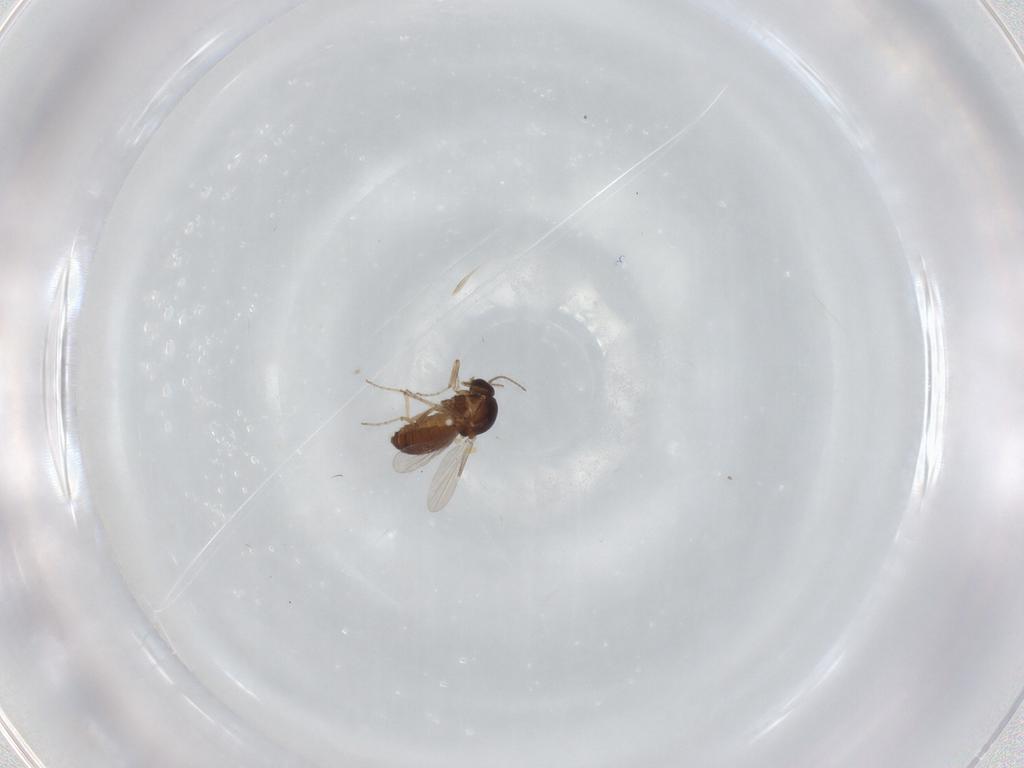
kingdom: Animalia
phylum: Arthropoda
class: Insecta
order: Diptera
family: Ceratopogonidae
